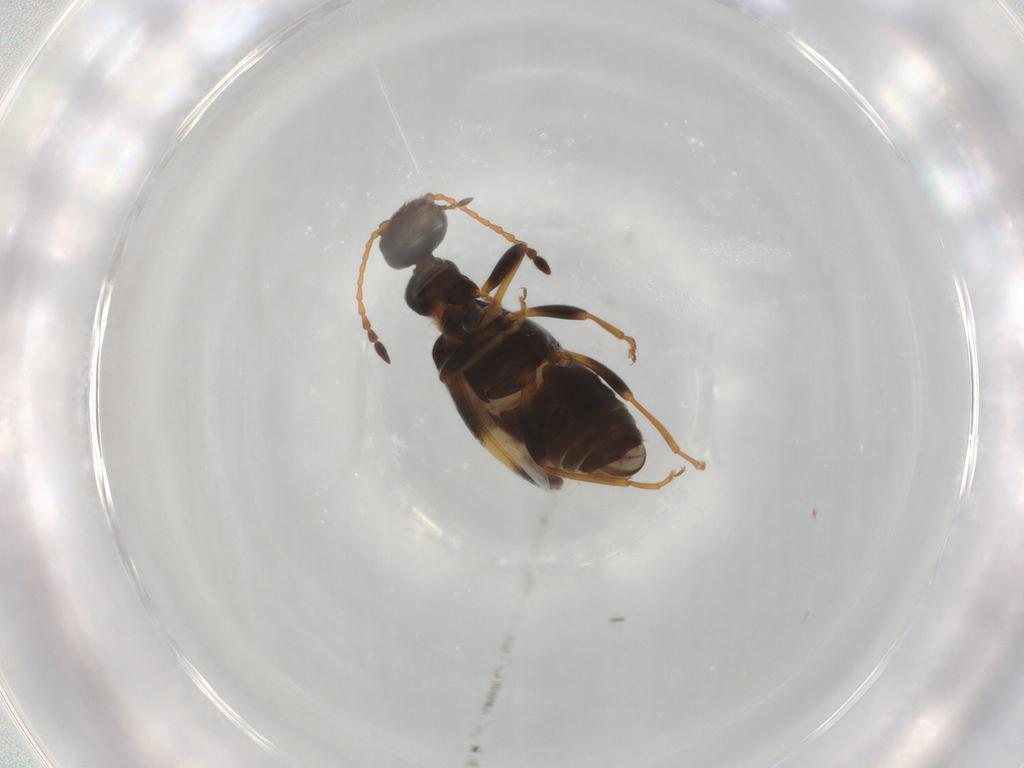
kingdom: Animalia
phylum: Arthropoda
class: Insecta
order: Coleoptera
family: Anthicidae
